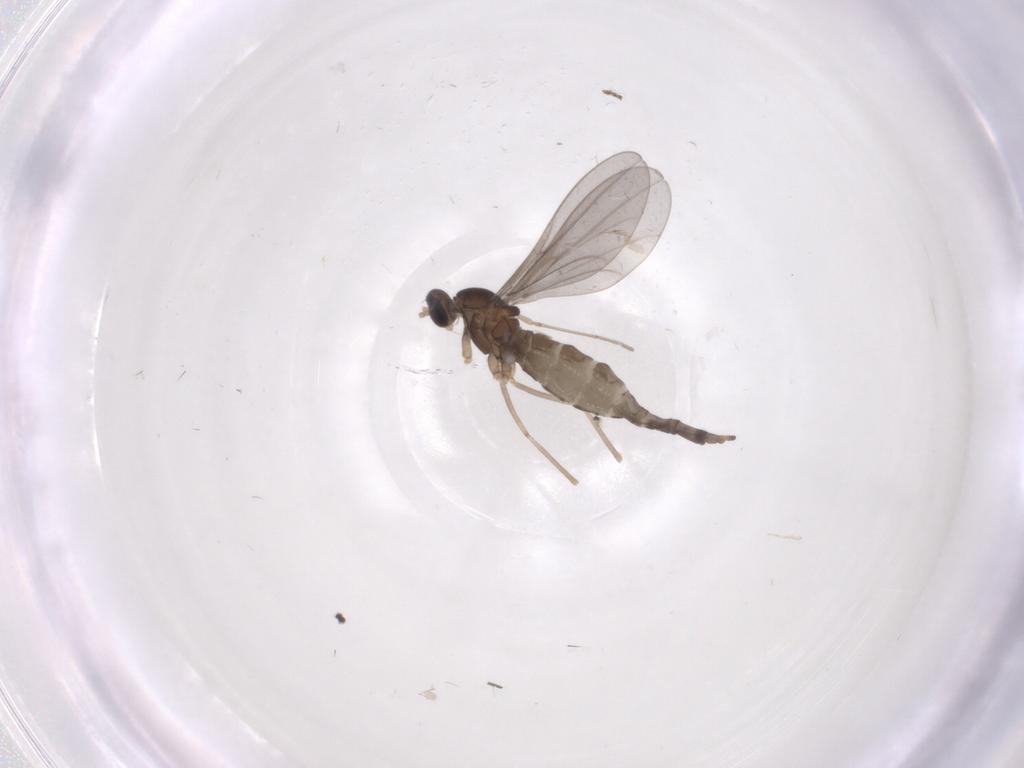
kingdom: Animalia
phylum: Arthropoda
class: Insecta
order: Diptera
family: Cecidomyiidae
